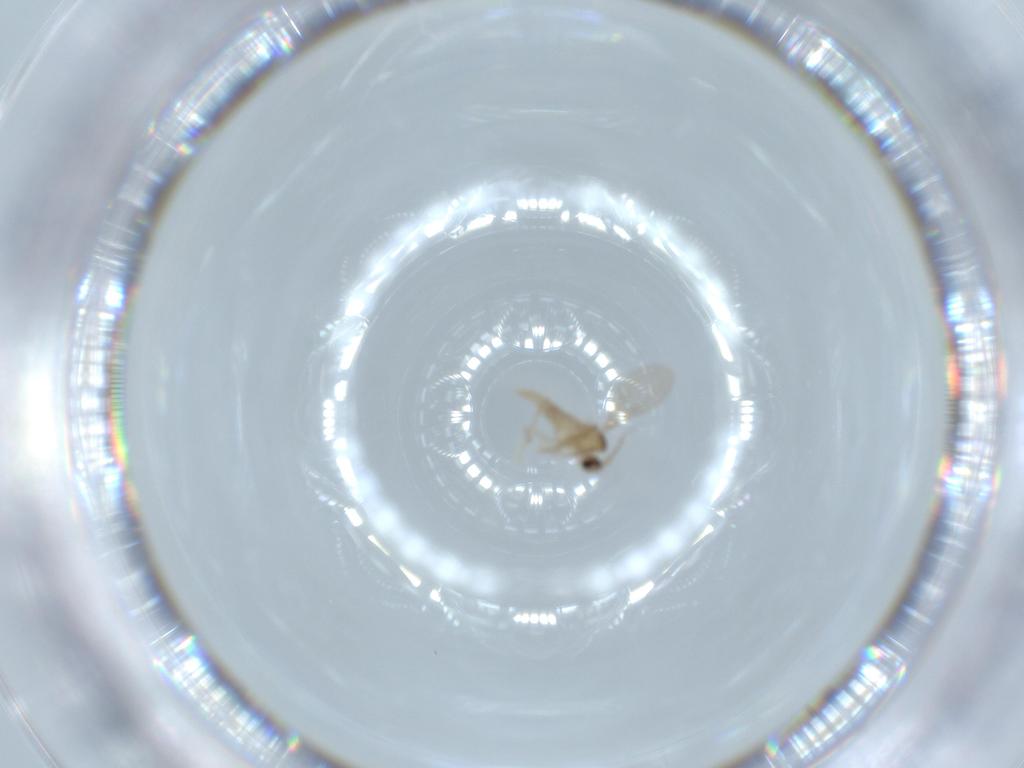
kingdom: Animalia
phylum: Arthropoda
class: Insecta
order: Diptera
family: Cecidomyiidae
